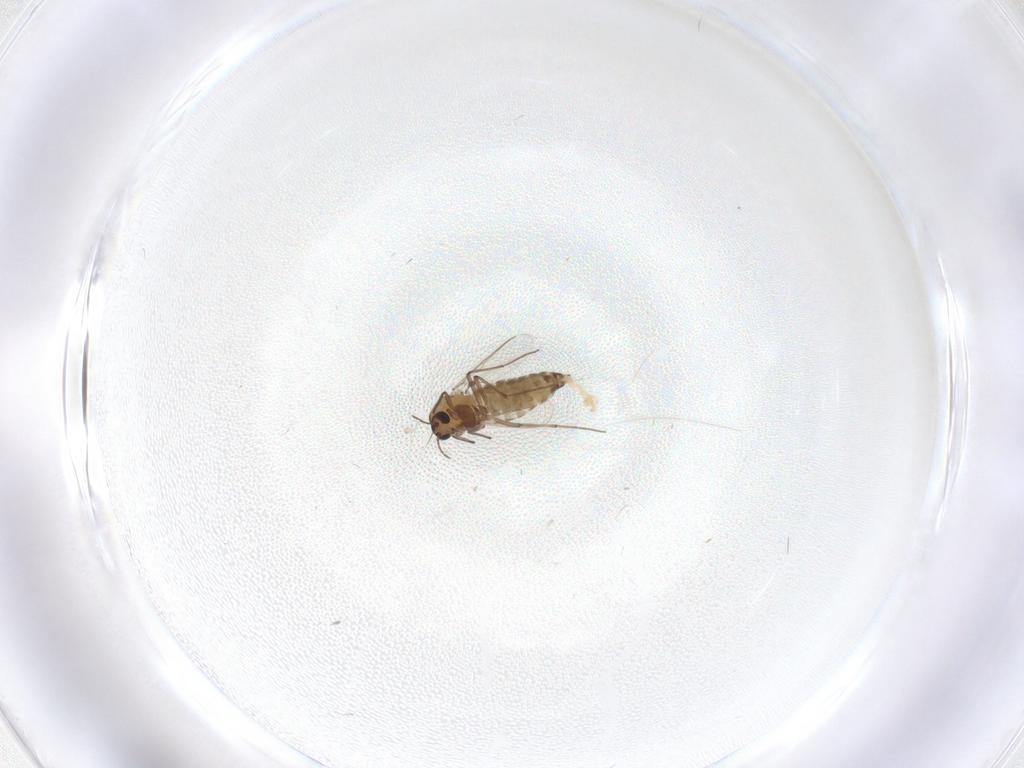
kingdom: Animalia
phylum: Arthropoda
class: Insecta
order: Diptera
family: Chironomidae
